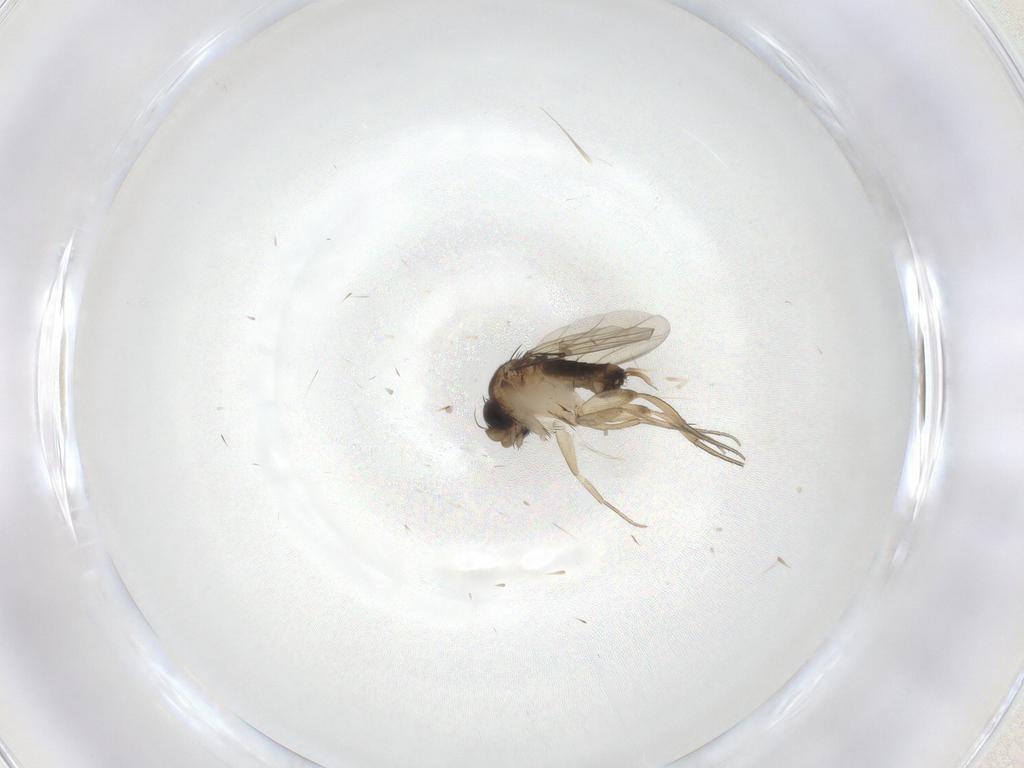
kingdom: Animalia
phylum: Arthropoda
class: Insecta
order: Diptera
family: Phoridae
